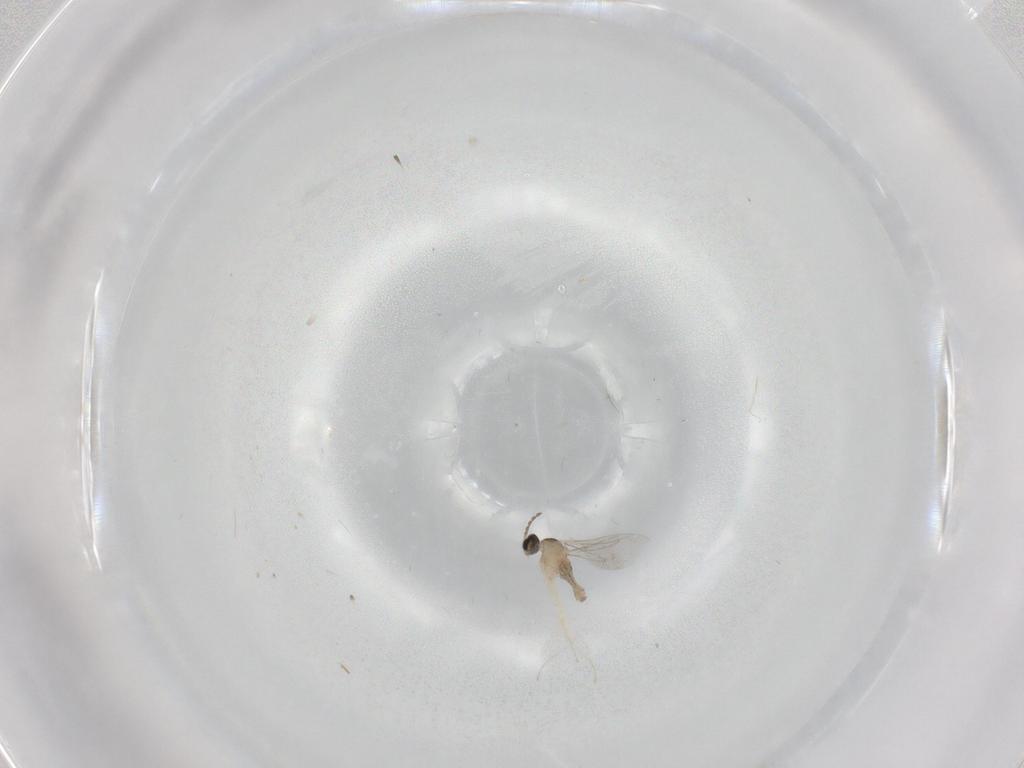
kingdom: Animalia
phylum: Arthropoda
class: Insecta
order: Diptera
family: Cecidomyiidae
